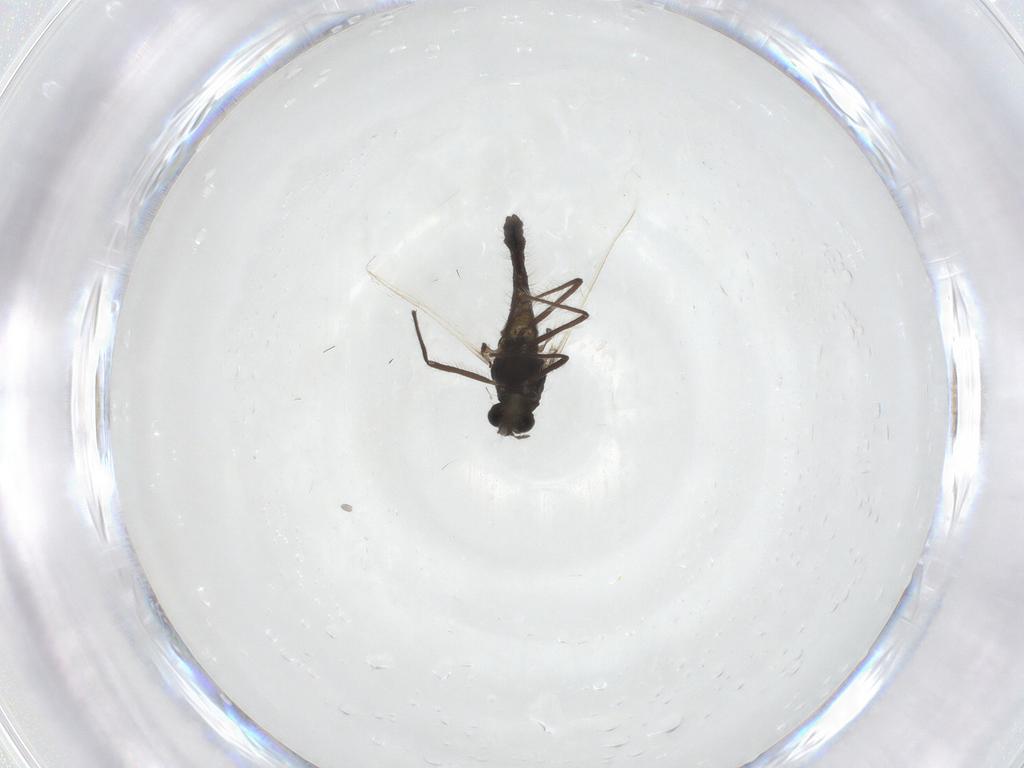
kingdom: Animalia
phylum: Arthropoda
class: Insecta
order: Diptera
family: Chironomidae
